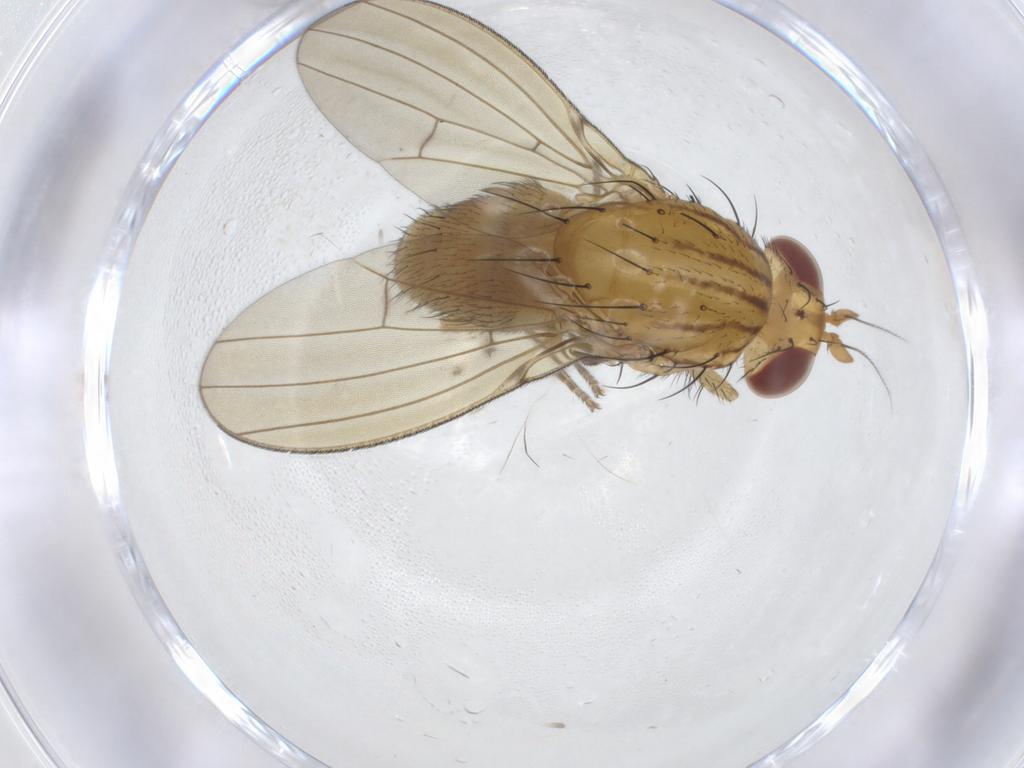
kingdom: Animalia
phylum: Arthropoda
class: Insecta
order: Diptera
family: Lauxaniidae
